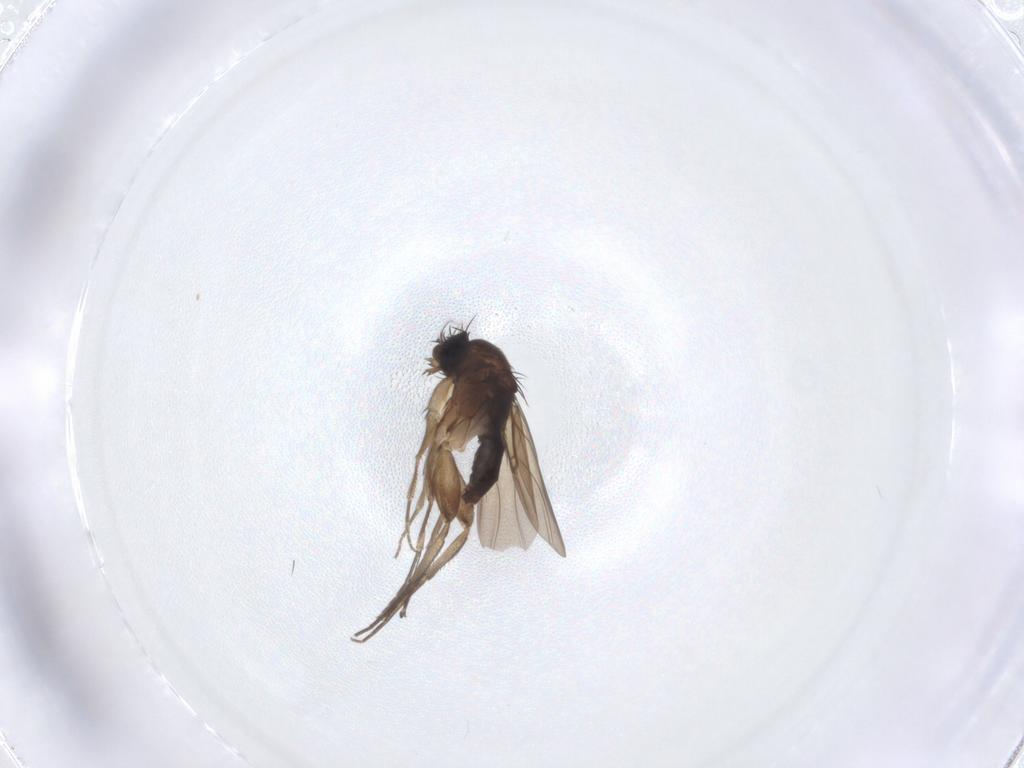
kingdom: Animalia
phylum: Arthropoda
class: Insecta
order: Diptera
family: Phoridae
